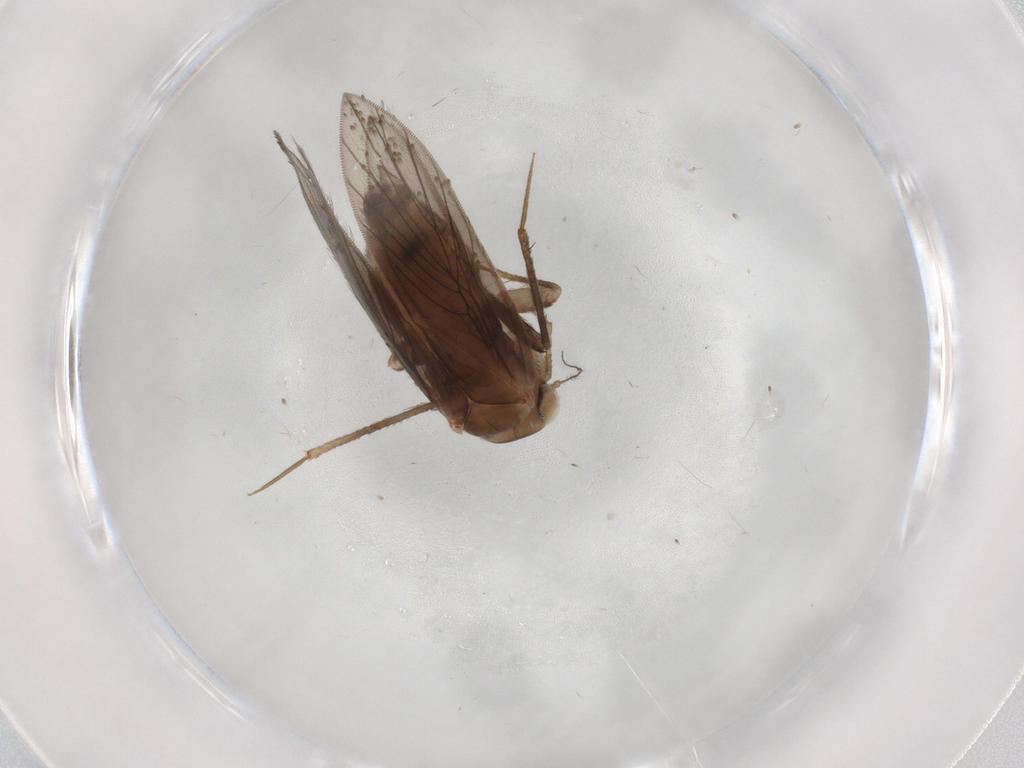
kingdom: Animalia
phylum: Arthropoda
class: Insecta
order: Psocodea
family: Lepidopsocidae
